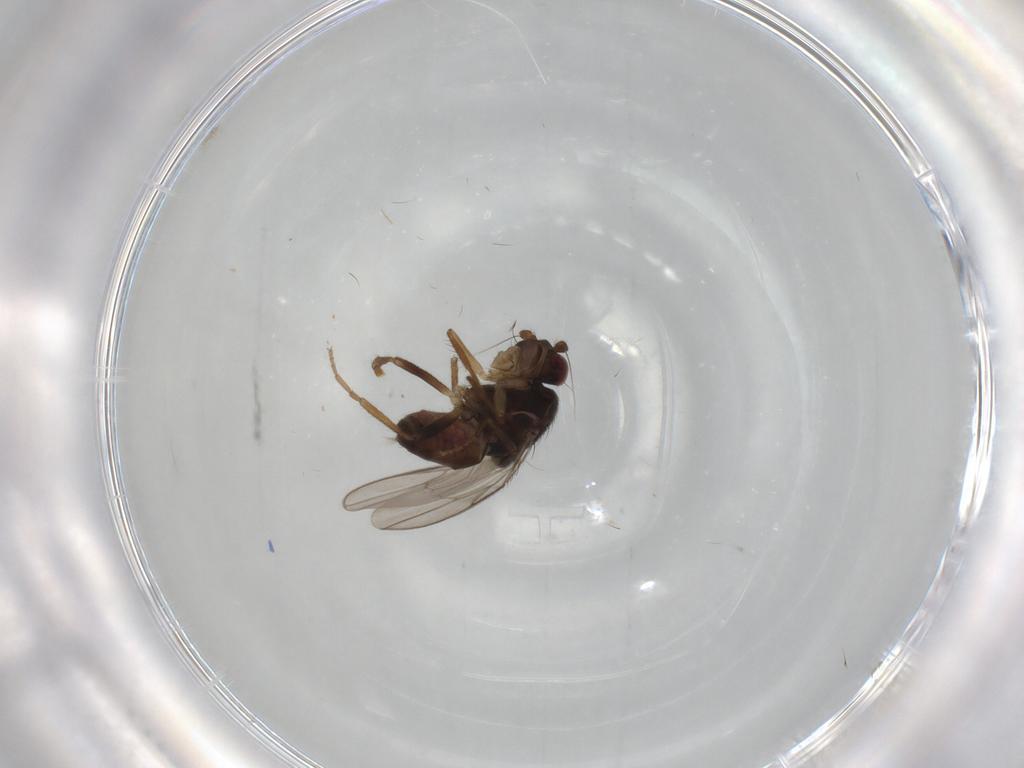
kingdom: Animalia
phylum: Arthropoda
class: Insecta
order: Diptera
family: Sphaeroceridae
